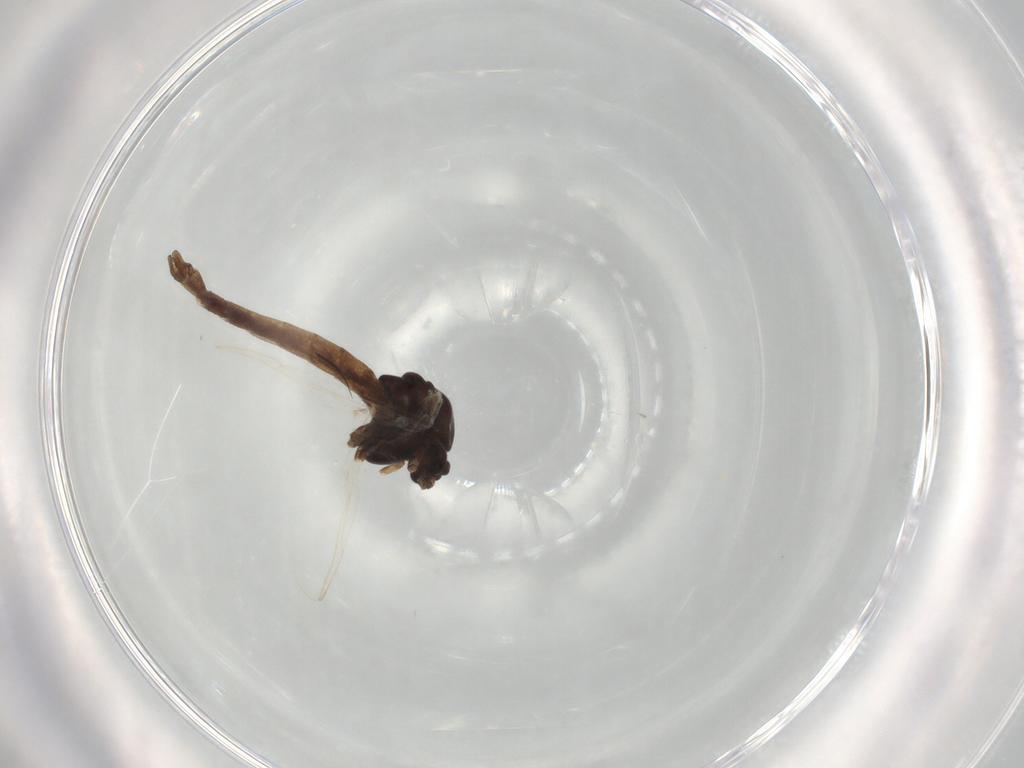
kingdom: Animalia
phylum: Arthropoda
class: Insecta
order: Diptera
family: Chironomidae
